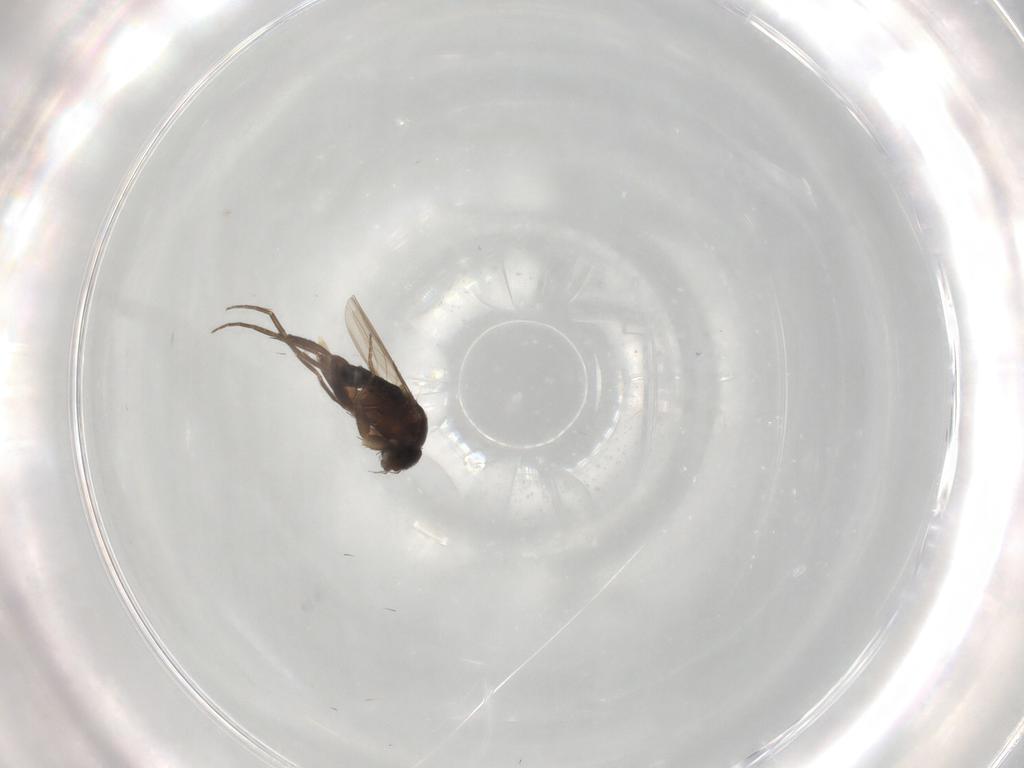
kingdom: Animalia
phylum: Arthropoda
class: Insecta
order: Diptera
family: Phoridae
